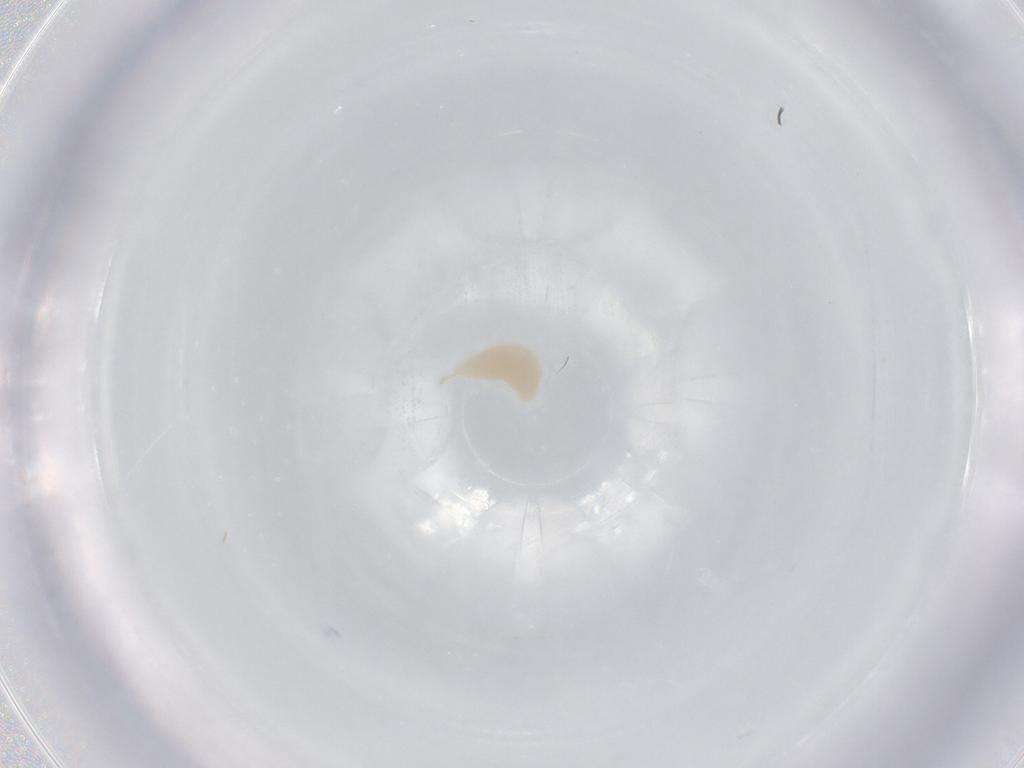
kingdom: Animalia
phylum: Arthropoda
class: Insecta
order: Hemiptera
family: Aphididae
